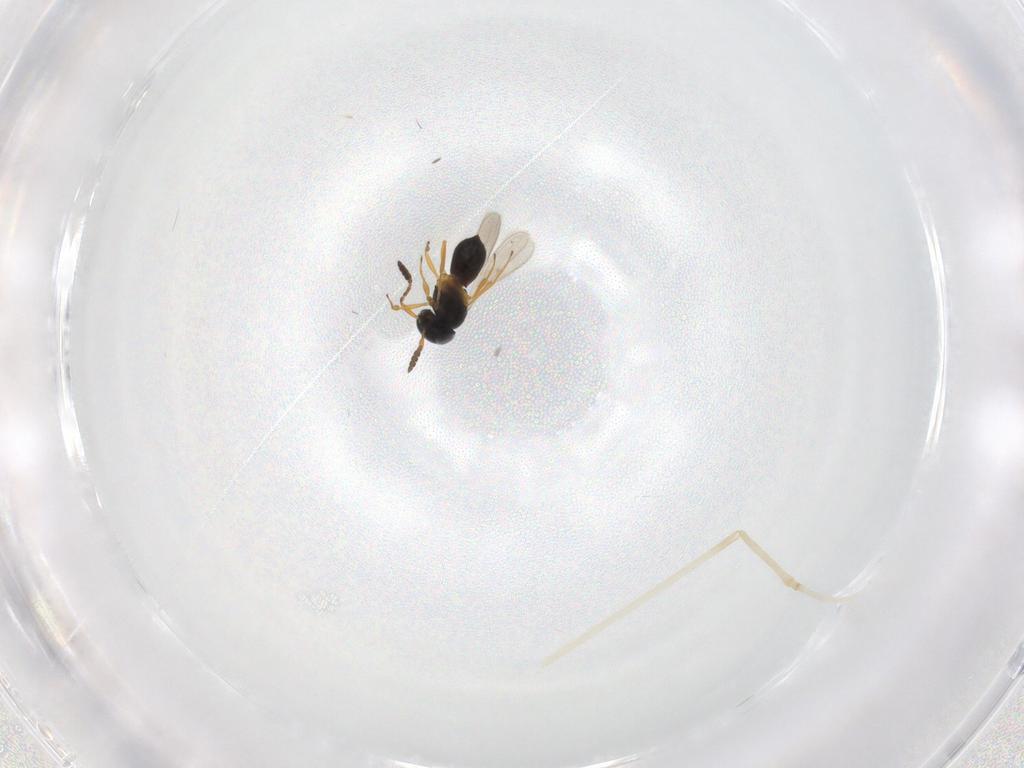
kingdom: Animalia
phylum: Arthropoda
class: Insecta
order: Hymenoptera
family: Scelionidae
